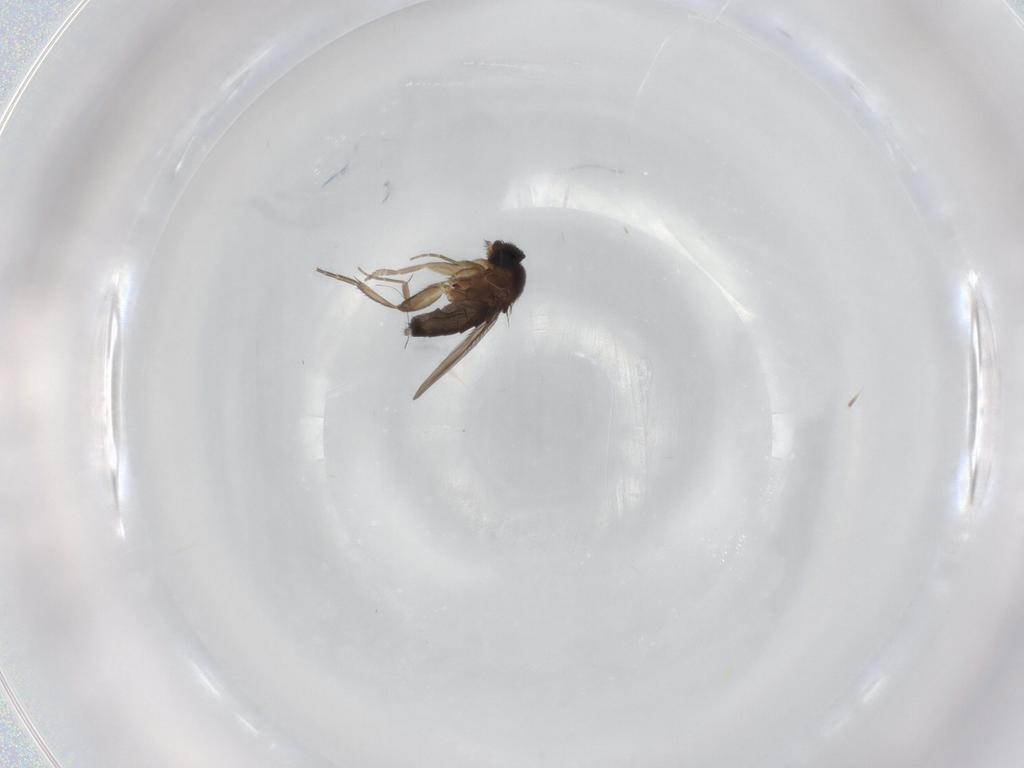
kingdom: Animalia
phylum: Arthropoda
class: Insecta
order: Diptera
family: Phoridae
